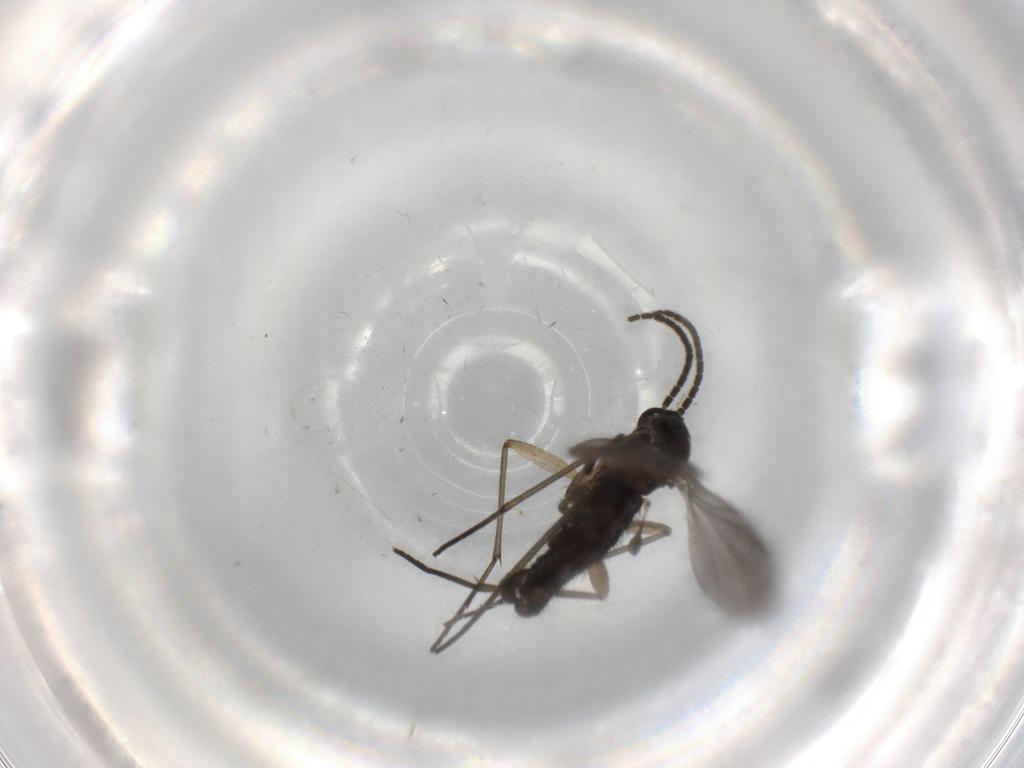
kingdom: Animalia
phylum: Arthropoda
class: Insecta
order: Diptera
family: Sciaridae
